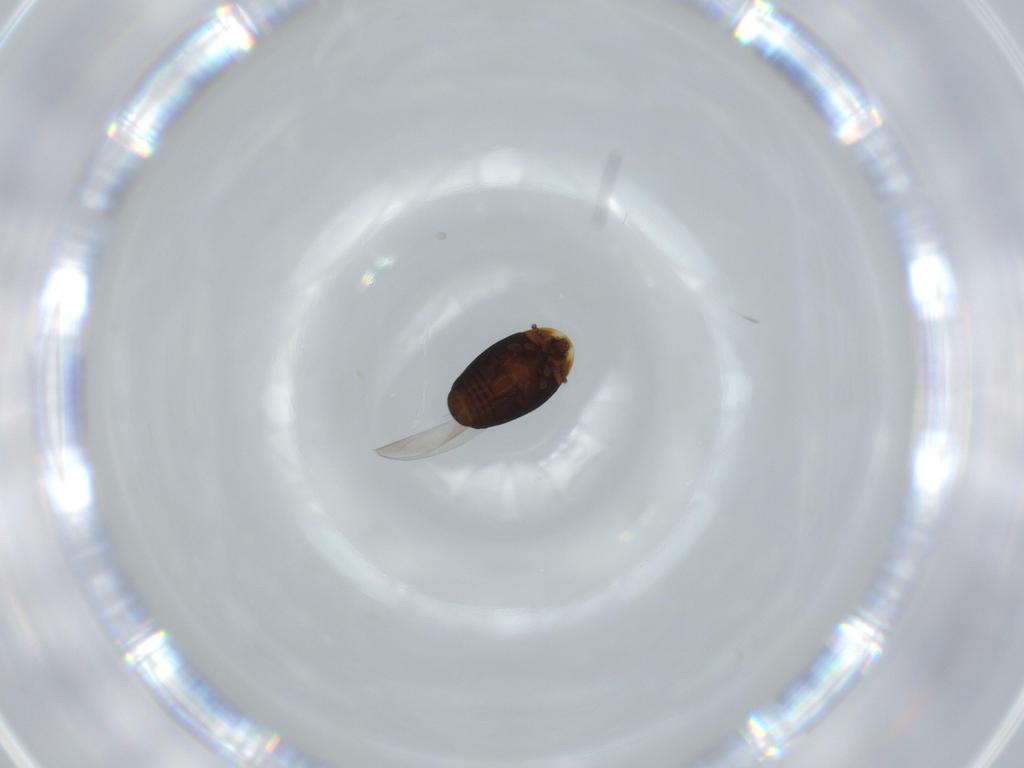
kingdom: Animalia
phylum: Arthropoda
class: Insecta
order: Coleoptera
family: Corylophidae
